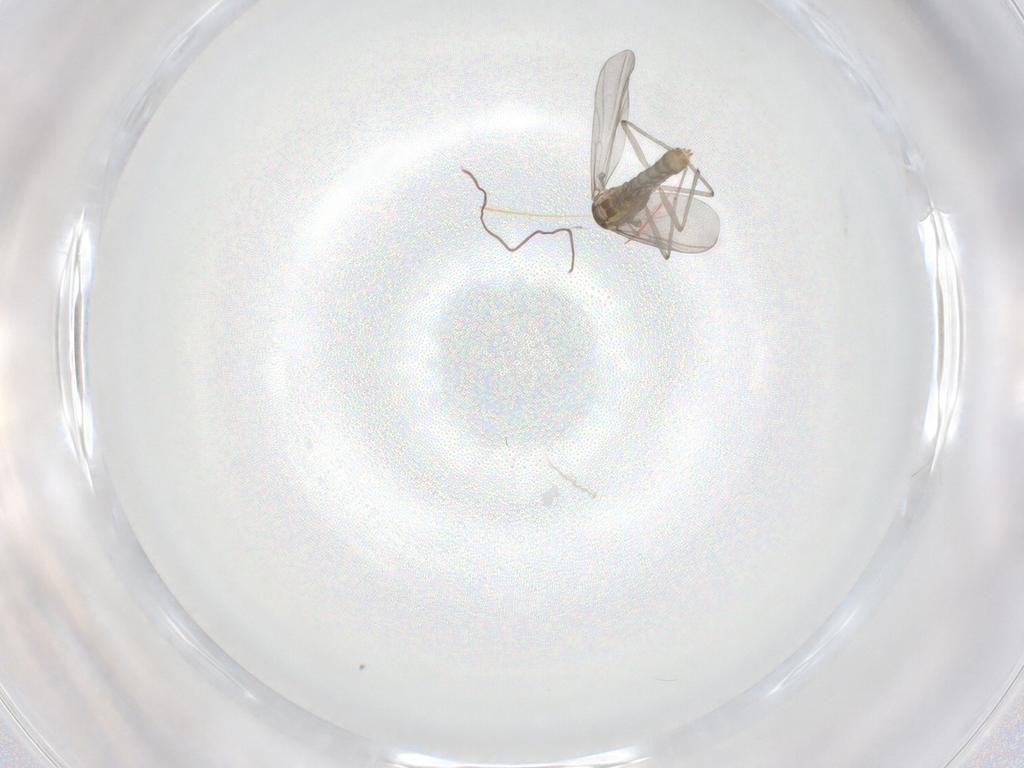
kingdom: Animalia
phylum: Arthropoda
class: Insecta
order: Diptera
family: Chironomidae
